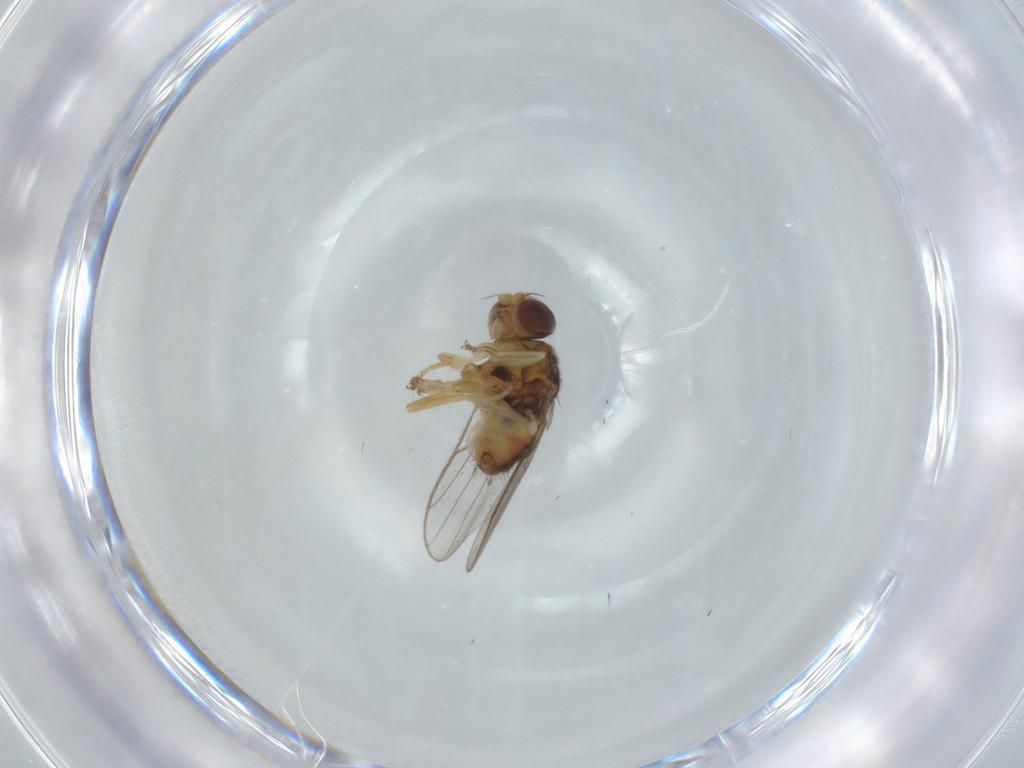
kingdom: Animalia
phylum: Arthropoda
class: Insecta
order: Diptera
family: Chloropidae
